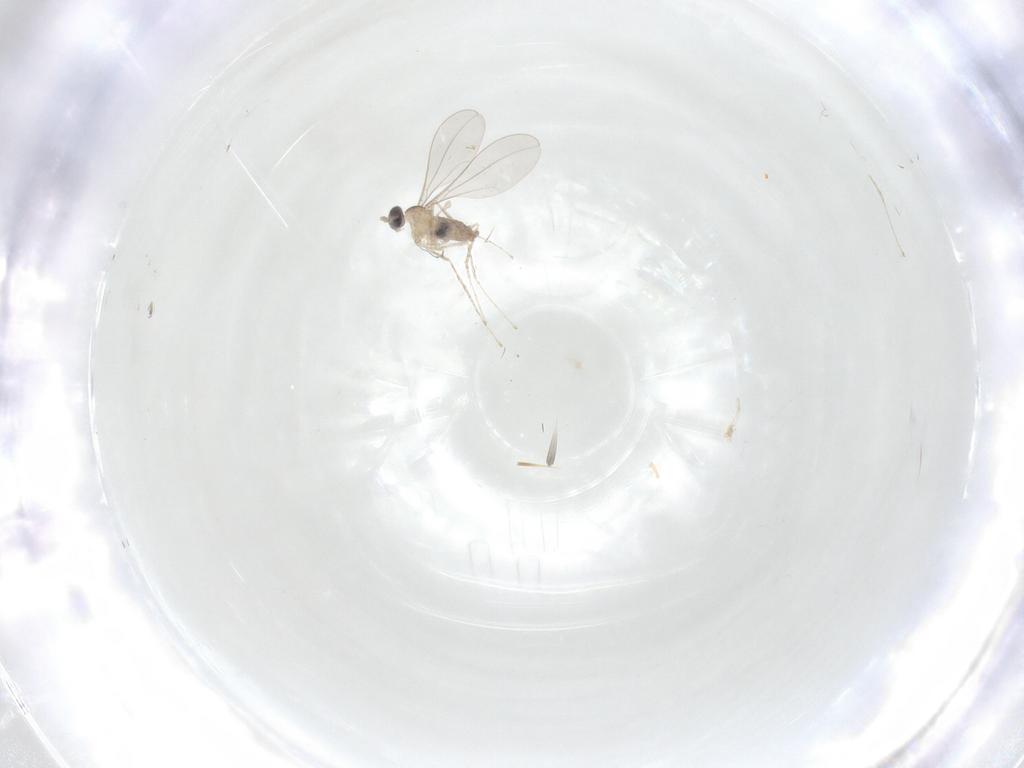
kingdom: Animalia
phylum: Arthropoda
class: Insecta
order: Diptera
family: Cecidomyiidae
